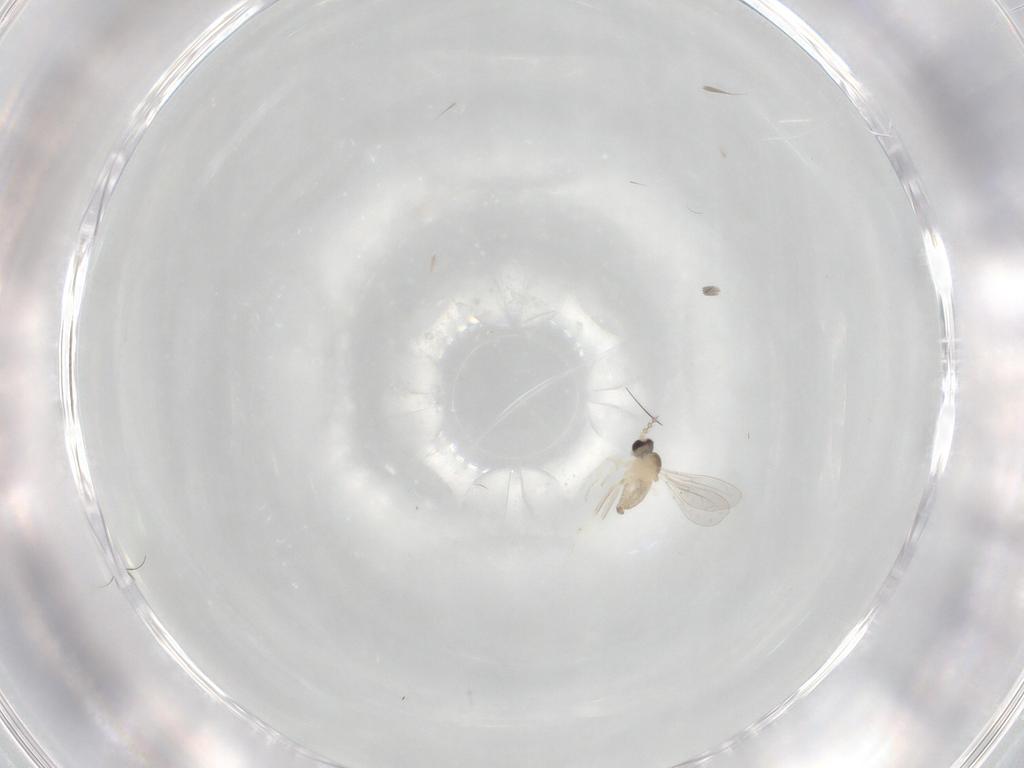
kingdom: Animalia
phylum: Arthropoda
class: Insecta
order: Diptera
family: Cecidomyiidae
